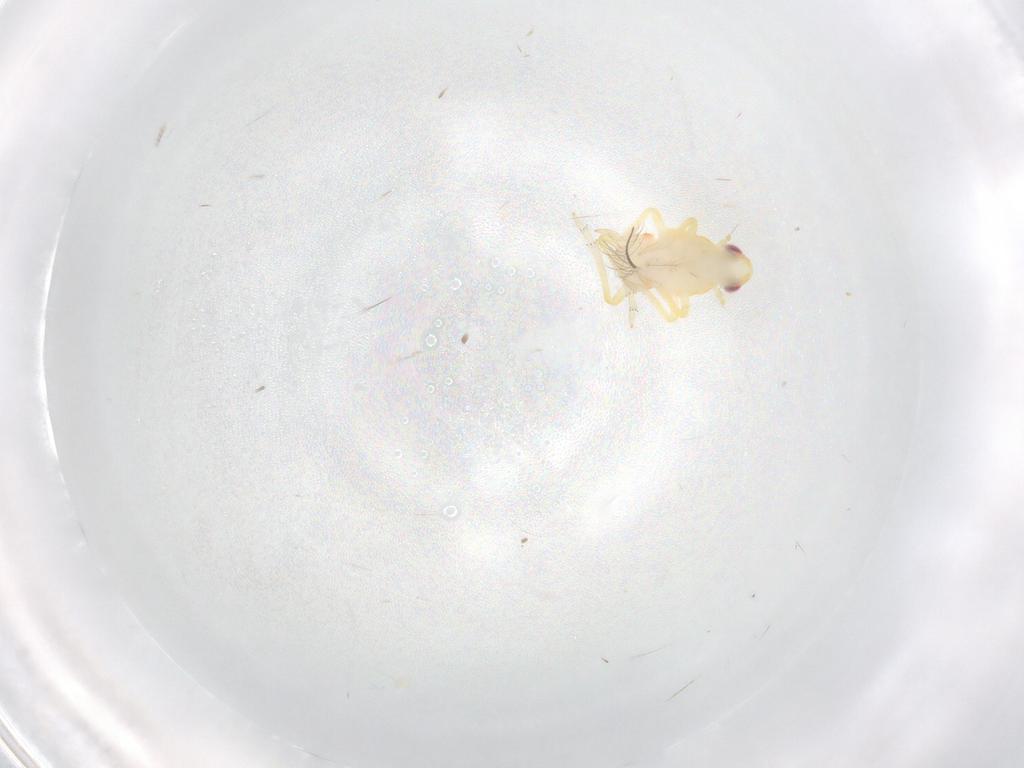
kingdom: Animalia
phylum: Arthropoda
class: Insecta
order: Hemiptera
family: Tropiduchidae
